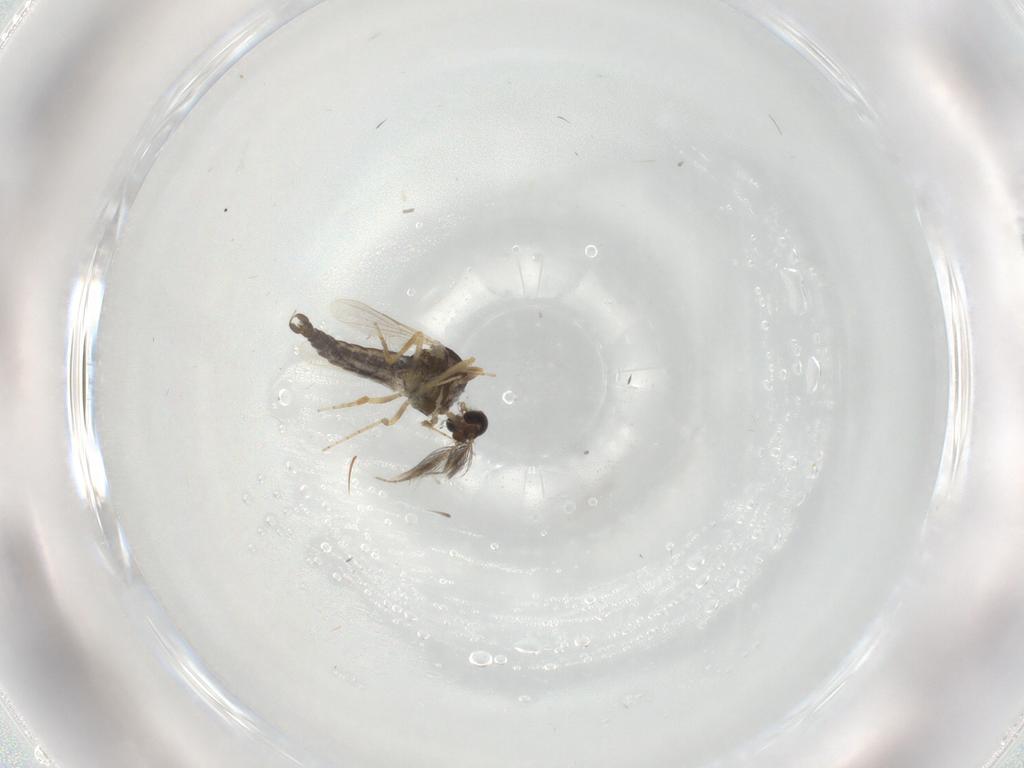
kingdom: Animalia
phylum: Arthropoda
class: Insecta
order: Diptera
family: Ceratopogonidae
